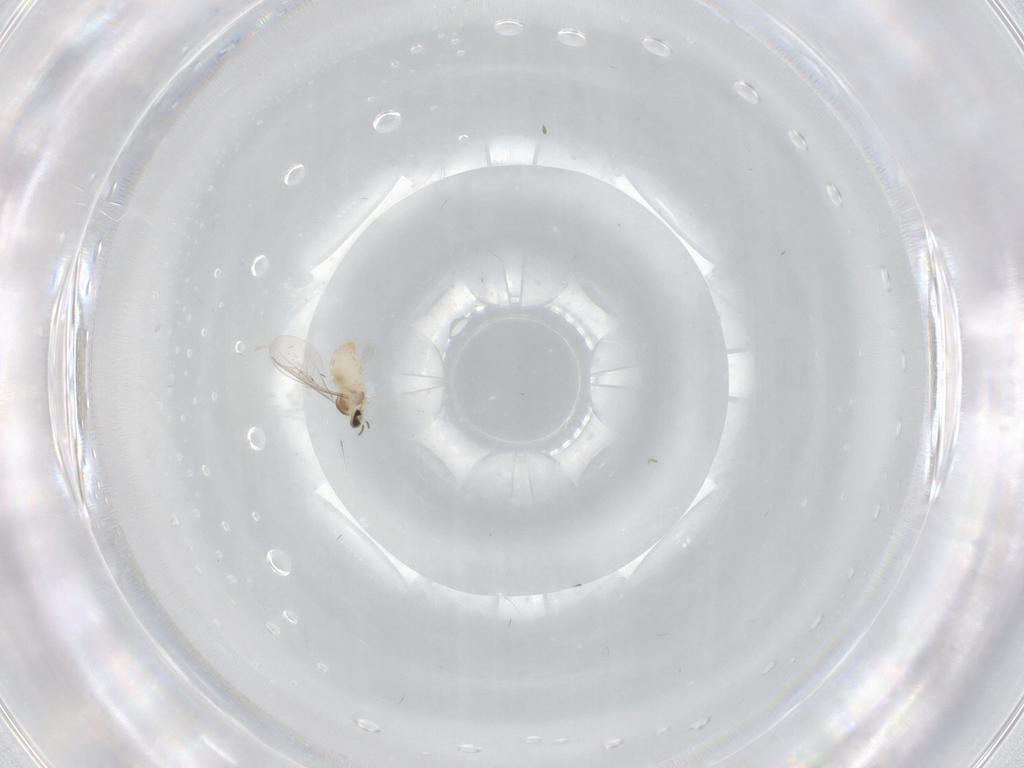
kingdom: Animalia
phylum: Arthropoda
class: Insecta
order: Diptera
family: Cecidomyiidae
